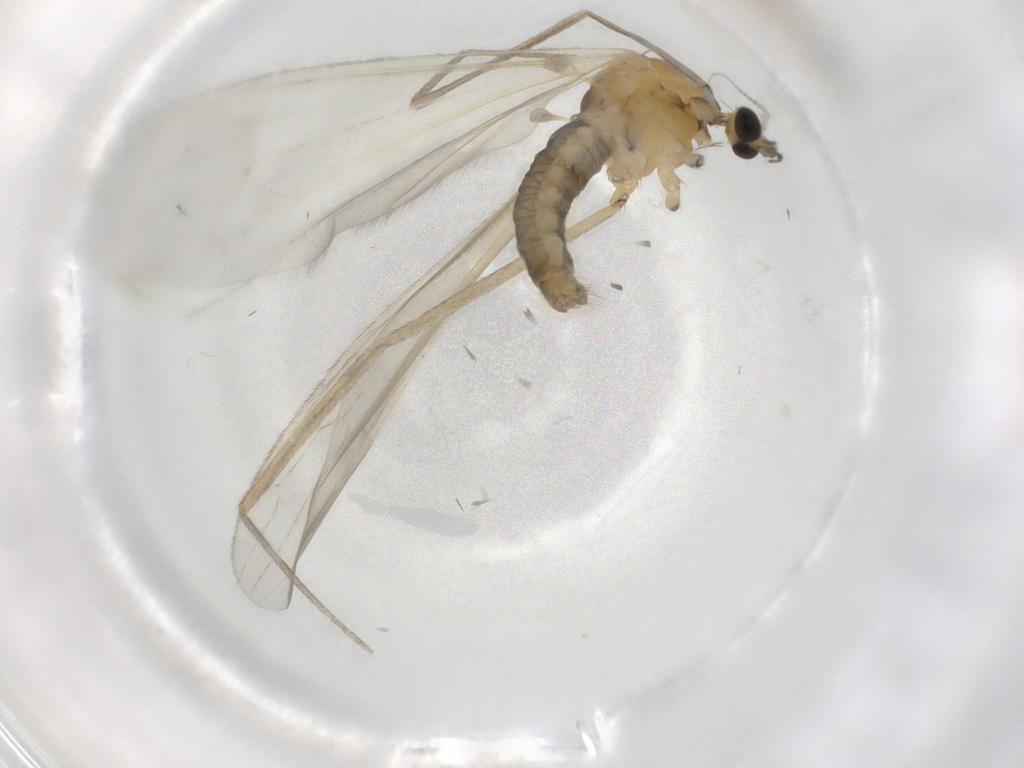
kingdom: Animalia
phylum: Arthropoda
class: Insecta
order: Diptera
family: Limoniidae
